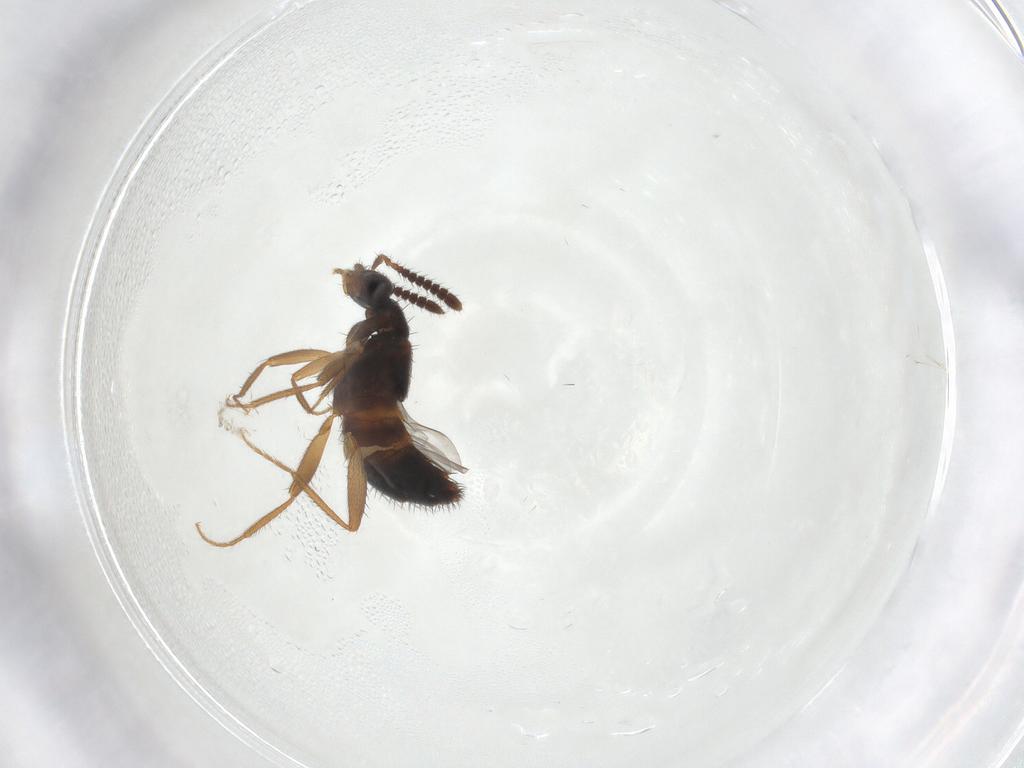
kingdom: Animalia
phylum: Arthropoda
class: Insecta
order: Coleoptera
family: Staphylinidae
